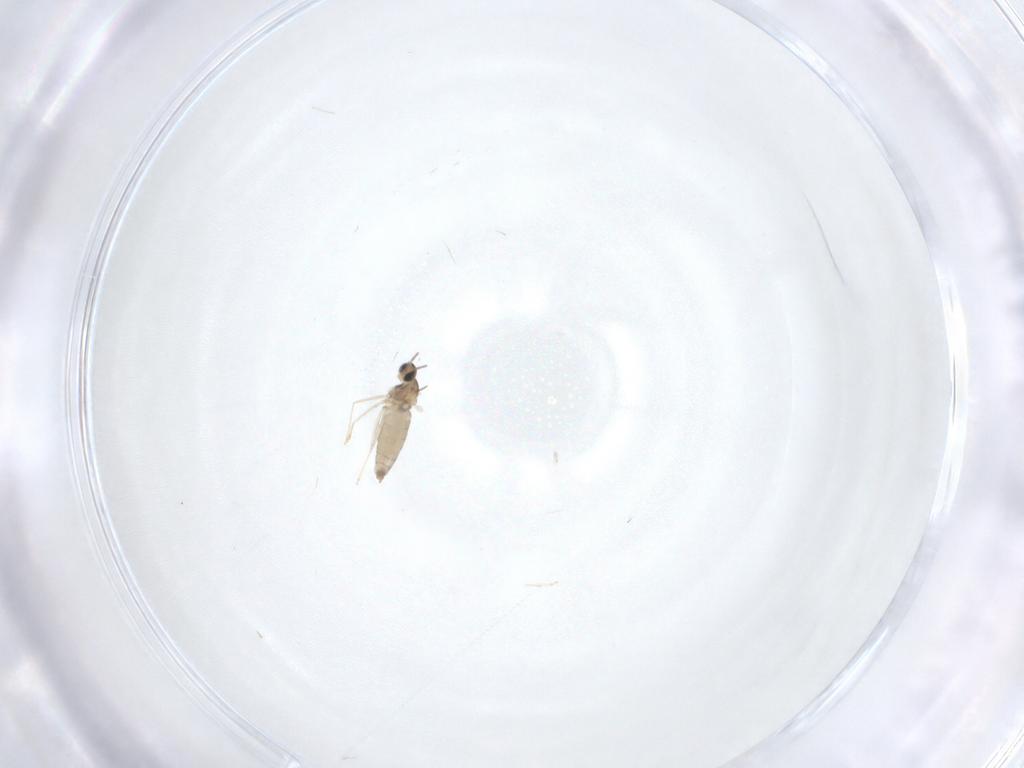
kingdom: Animalia
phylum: Arthropoda
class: Insecta
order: Diptera
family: Cecidomyiidae
